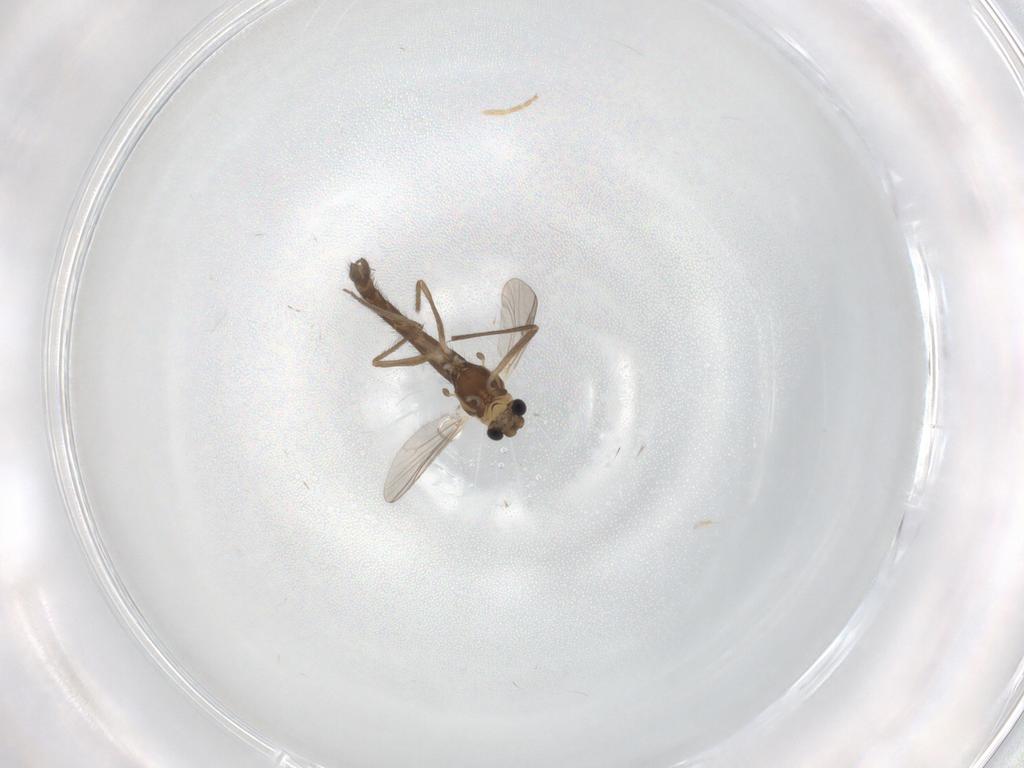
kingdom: Animalia
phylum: Arthropoda
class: Insecta
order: Diptera
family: Chironomidae
